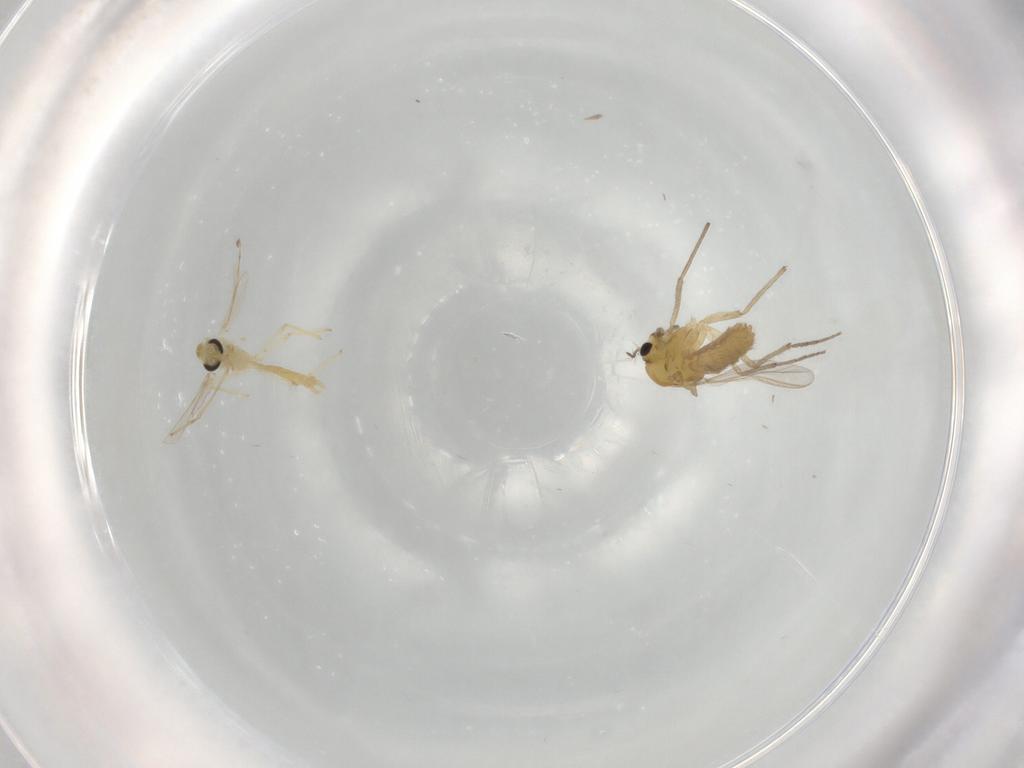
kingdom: Animalia
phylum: Arthropoda
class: Insecta
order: Diptera
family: Chironomidae
